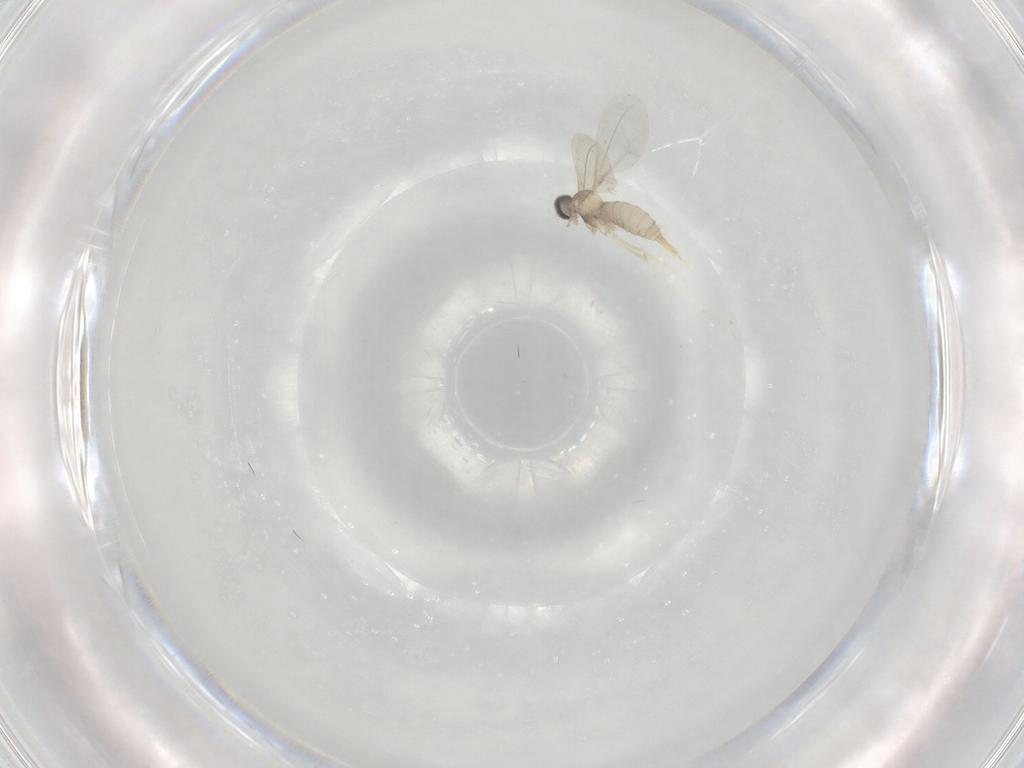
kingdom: Animalia
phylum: Arthropoda
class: Insecta
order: Diptera
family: Cecidomyiidae
